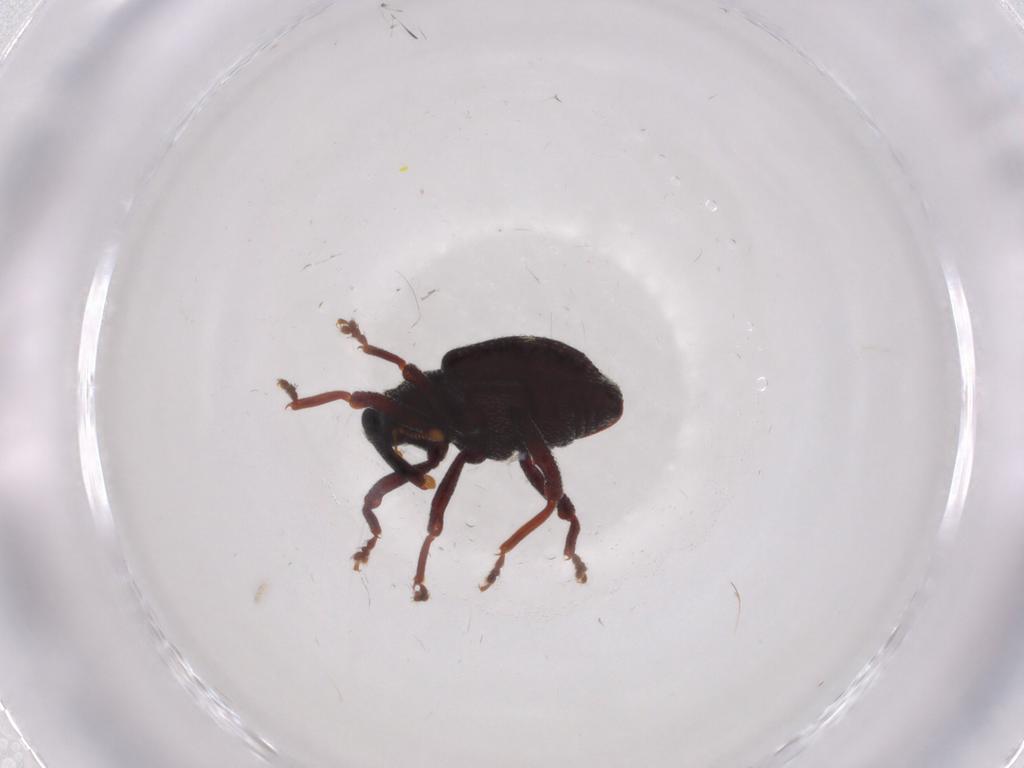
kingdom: Animalia
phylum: Arthropoda
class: Insecta
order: Coleoptera
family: Curculionidae
